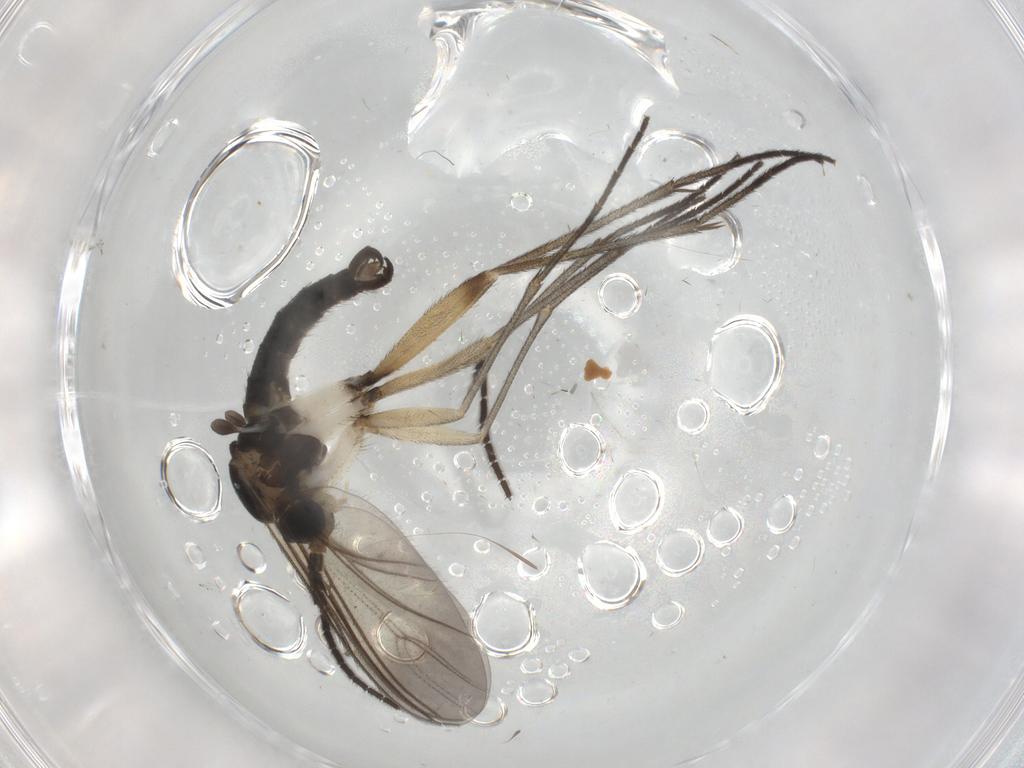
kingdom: Animalia
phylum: Arthropoda
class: Insecta
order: Diptera
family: Sciaridae
